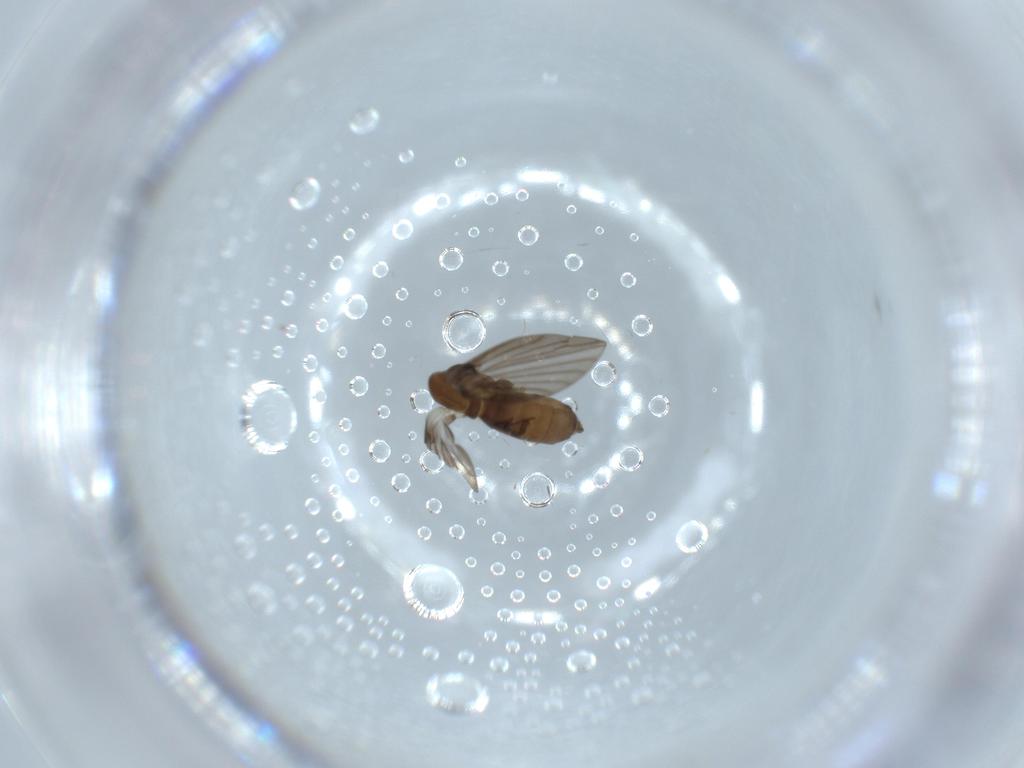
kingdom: Animalia
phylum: Arthropoda
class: Insecta
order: Diptera
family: Psychodidae
